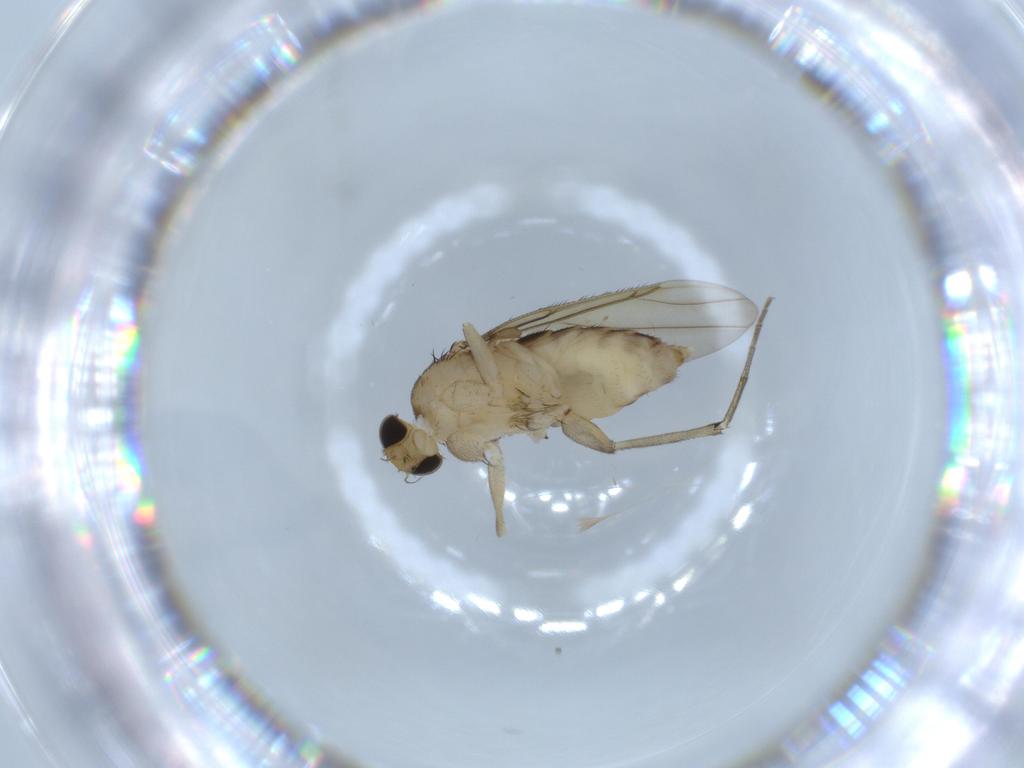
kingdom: Animalia
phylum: Arthropoda
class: Insecta
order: Diptera
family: Phoridae
